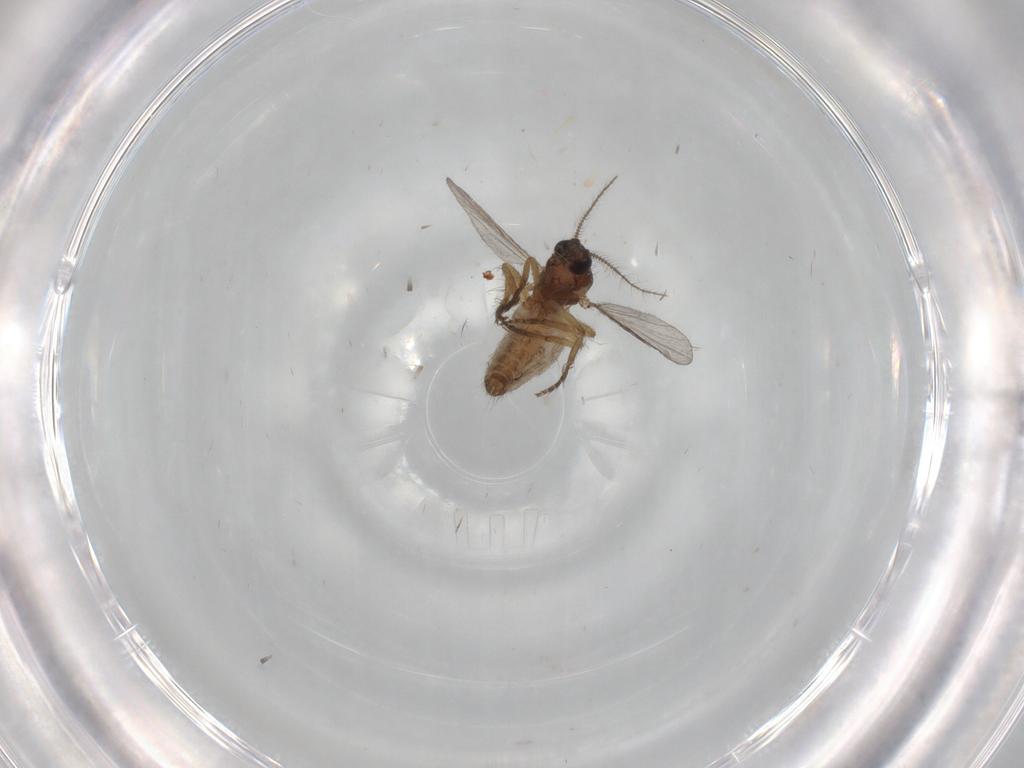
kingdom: Animalia
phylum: Arthropoda
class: Insecta
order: Diptera
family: Ceratopogonidae
